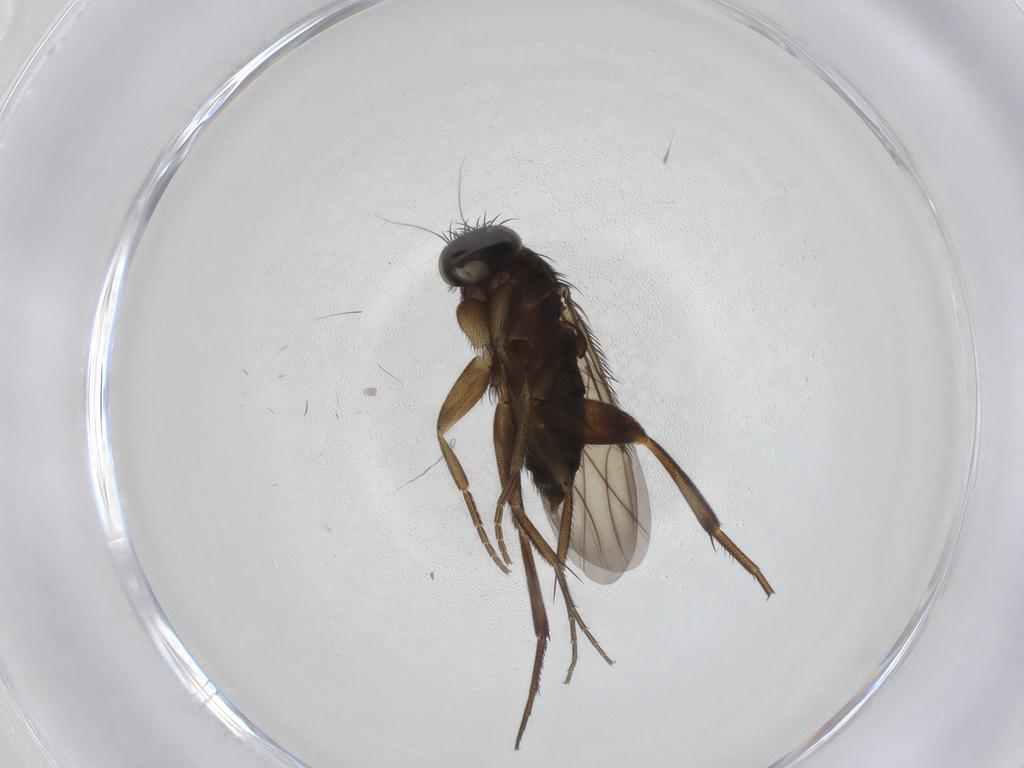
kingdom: Animalia
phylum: Arthropoda
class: Insecta
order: Diptera
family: Phoridae
